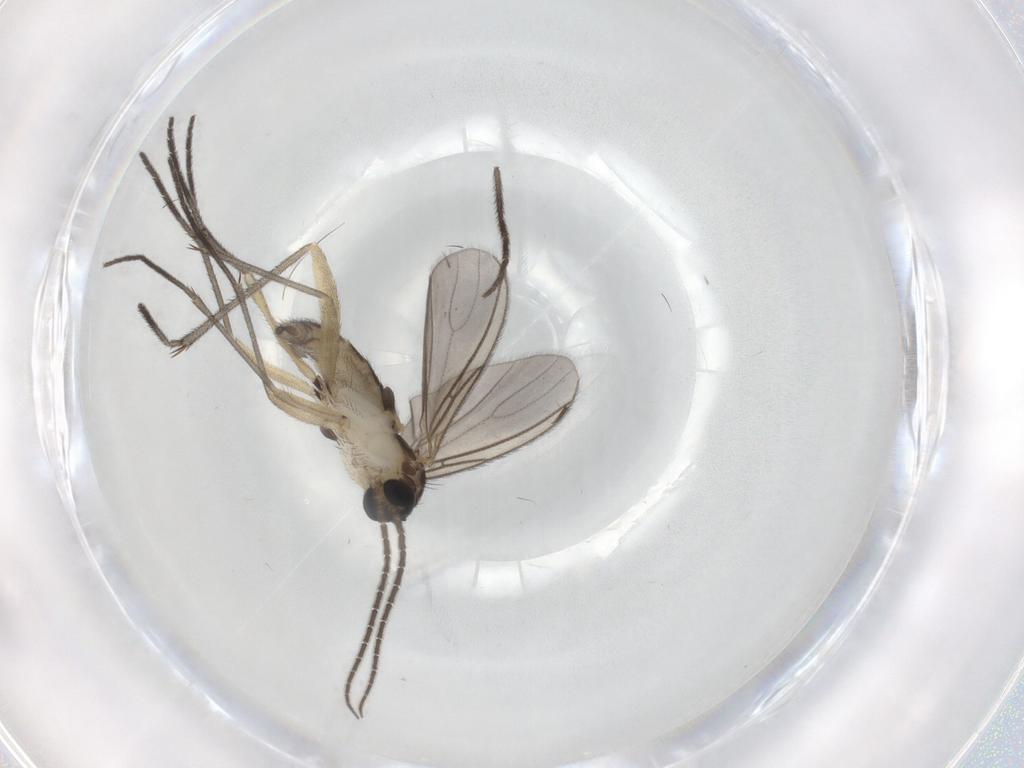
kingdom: Animalia
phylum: Arthropoda
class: Insecta
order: Diptera
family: Sciaridae
